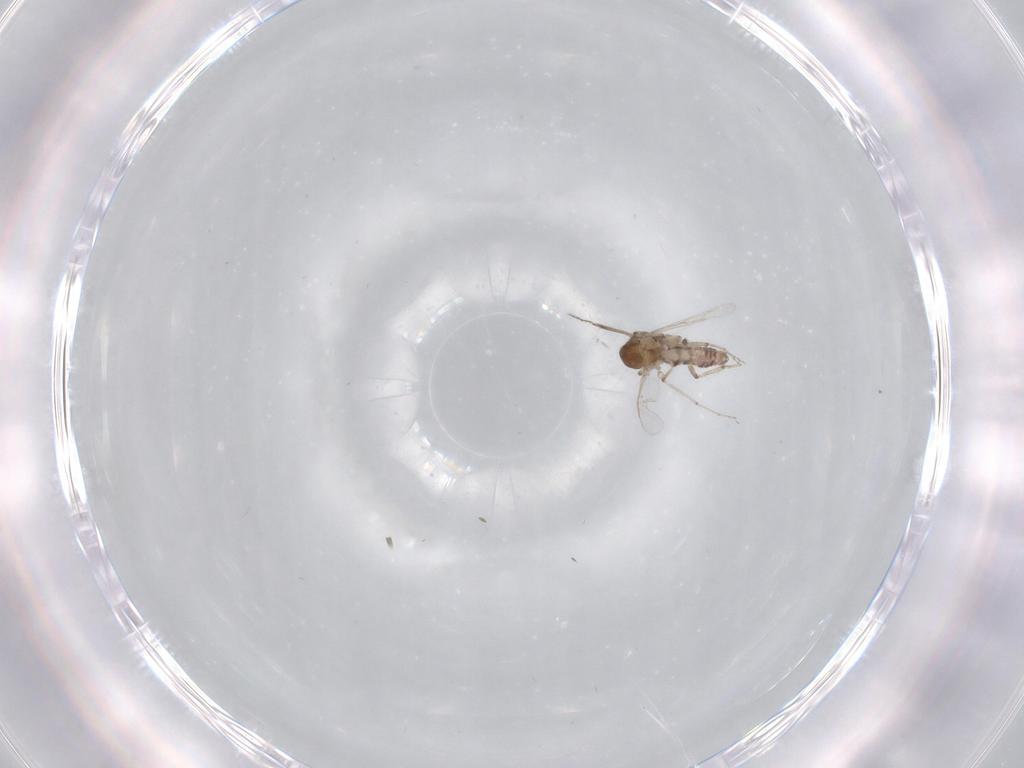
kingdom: Animalia
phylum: Arthropoda
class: Insecta
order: Diptera
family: Ceratopogonidae
